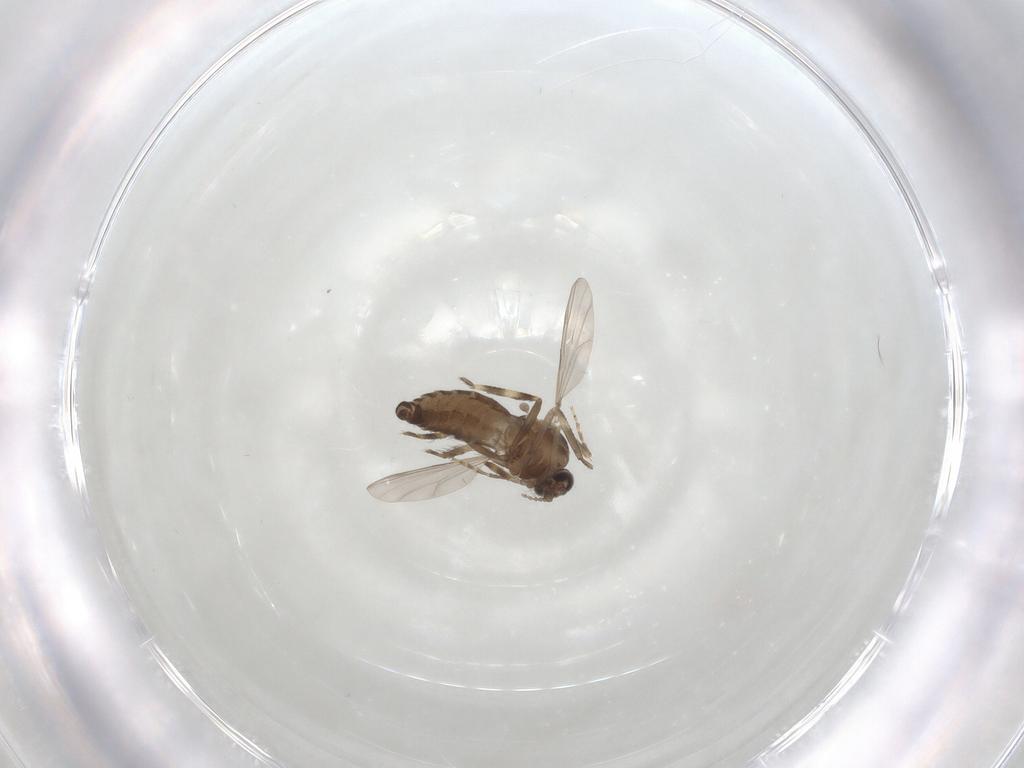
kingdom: Animalia
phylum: Arthropoda
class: Insecta
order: Diptera
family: Ceratopogonidae
